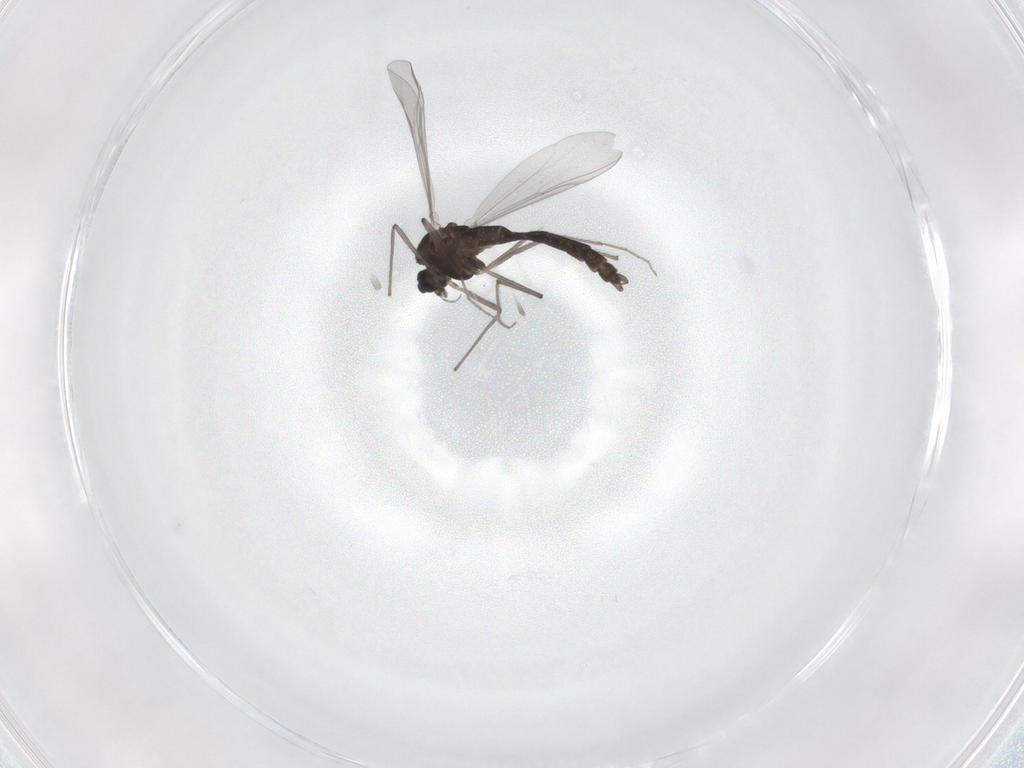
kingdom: Animalia
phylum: Arthropoda
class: Insecta
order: Diptera
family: Chironomidae
